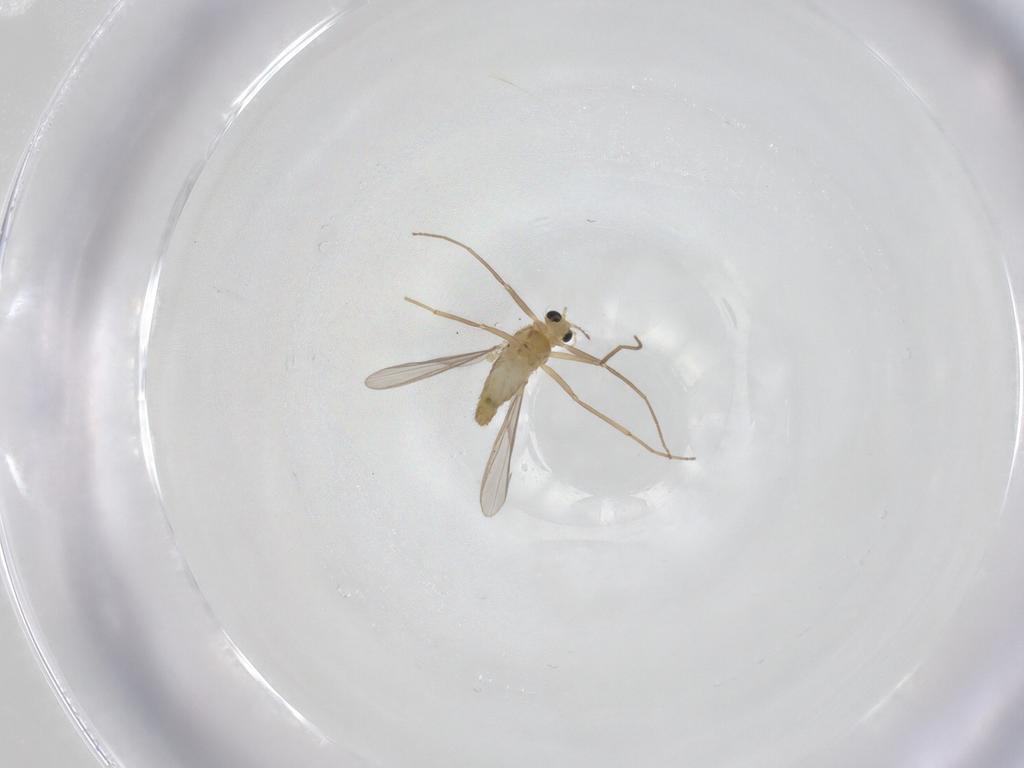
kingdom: Animalia
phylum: Arthropoda
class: Insecta
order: Diptera
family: Chironomidae
